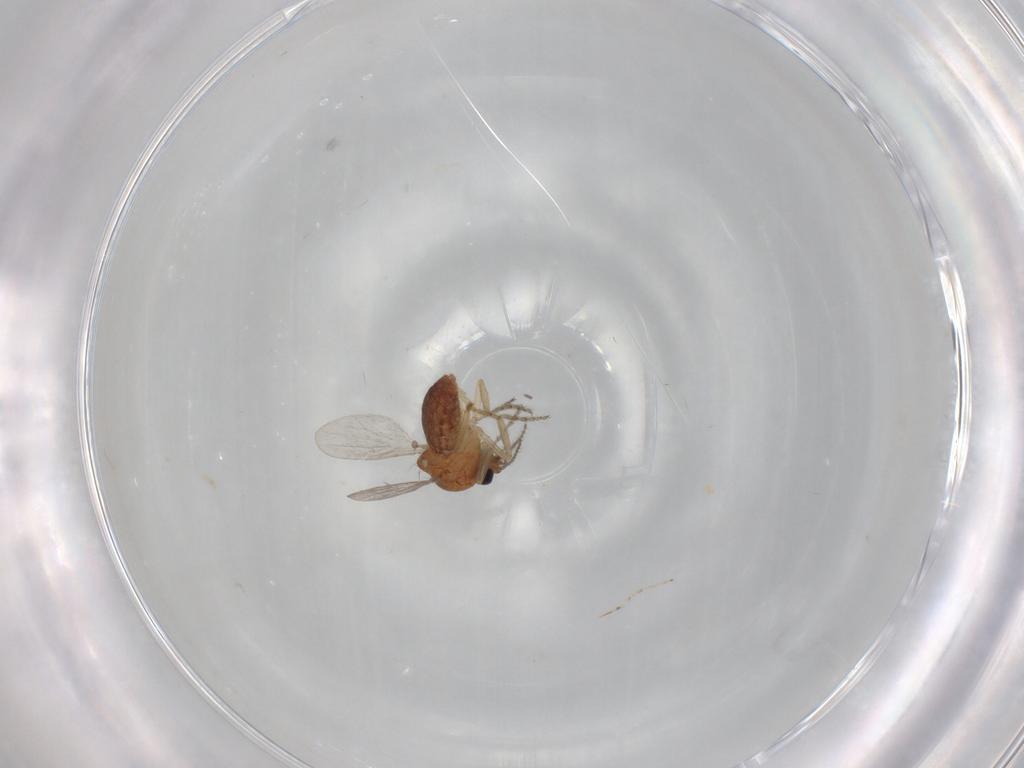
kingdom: Animalia
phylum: Arthropoda
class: Insecta
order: Diptera
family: Ceratopogonidae
